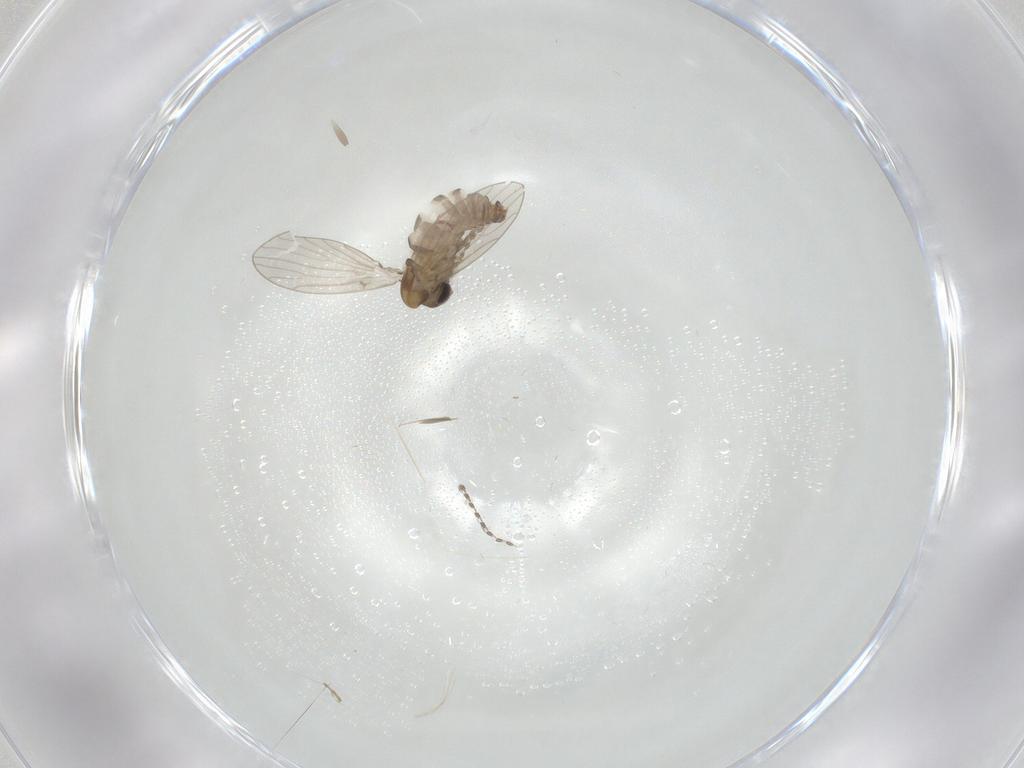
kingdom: Animalia
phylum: Arthropoda
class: Insecta
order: Diptera
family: Psychodidae
